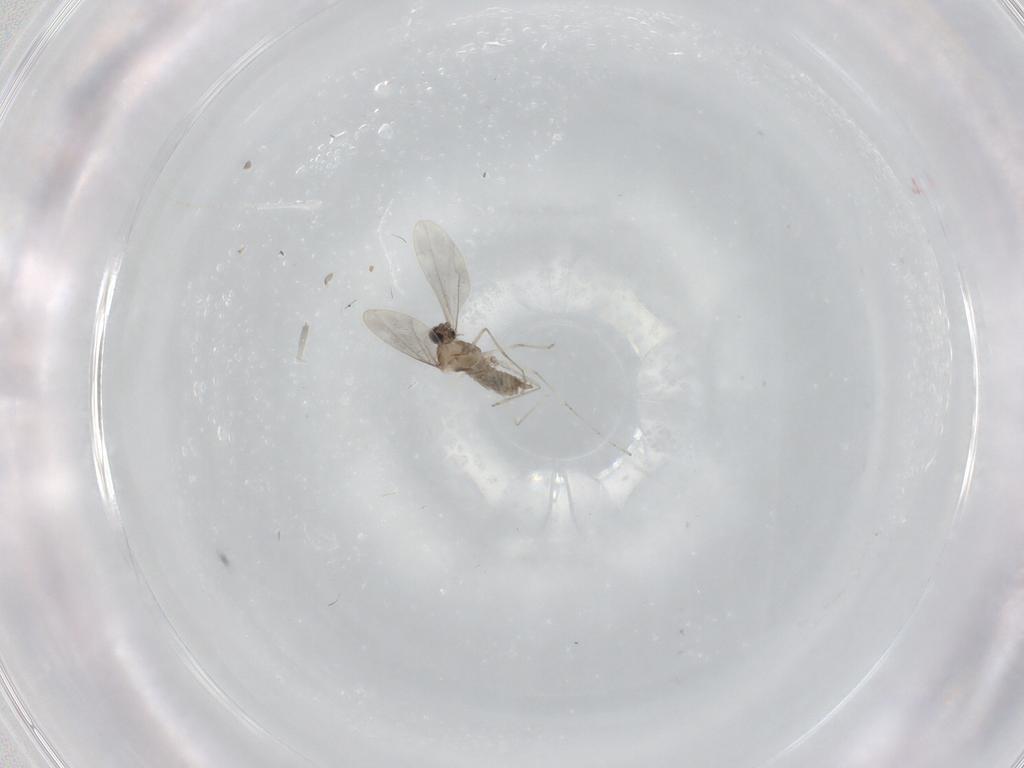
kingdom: Animalia
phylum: Arthropoda
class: Insecta
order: Diptera
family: Cecidomyiidae
